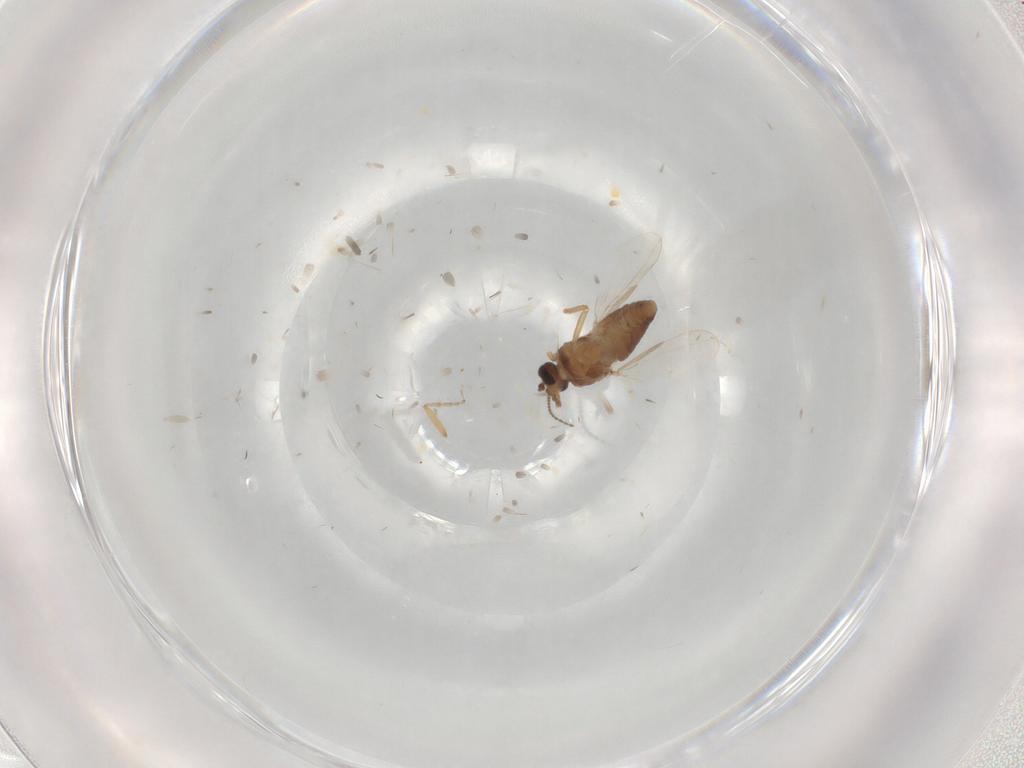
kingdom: Animalia
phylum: Arthropoda
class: Insecta
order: Diptera
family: Ceratopogonidae
